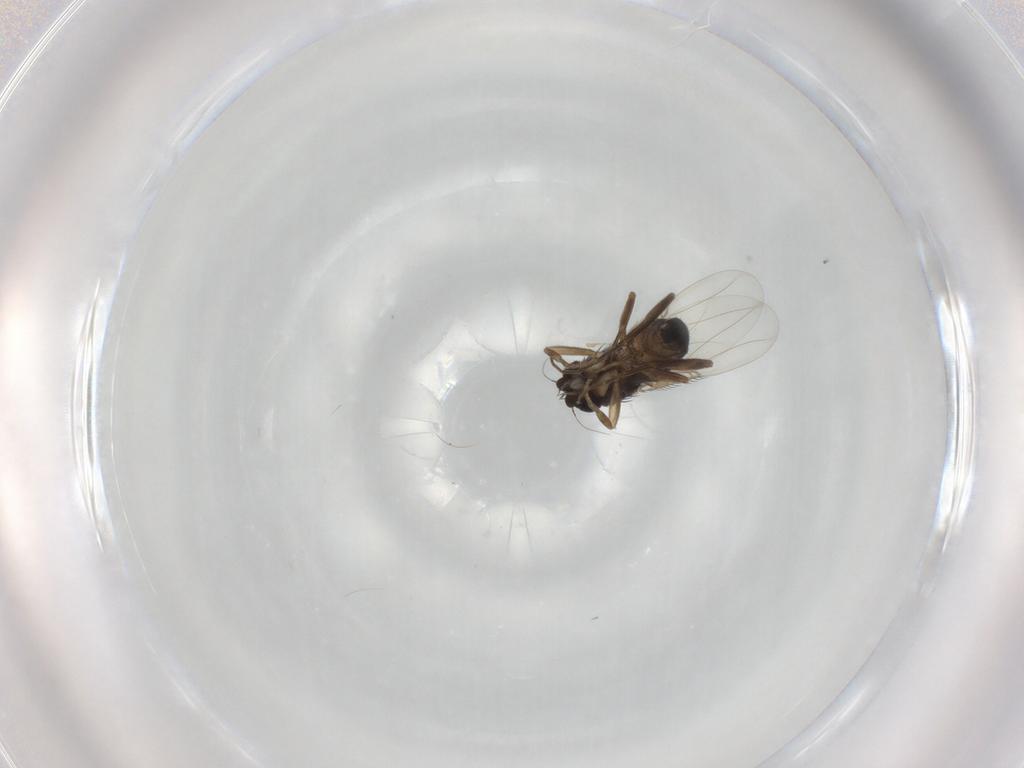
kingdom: Animalia
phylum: Arthropoda
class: Insecta
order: Diptera
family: Phoridae
